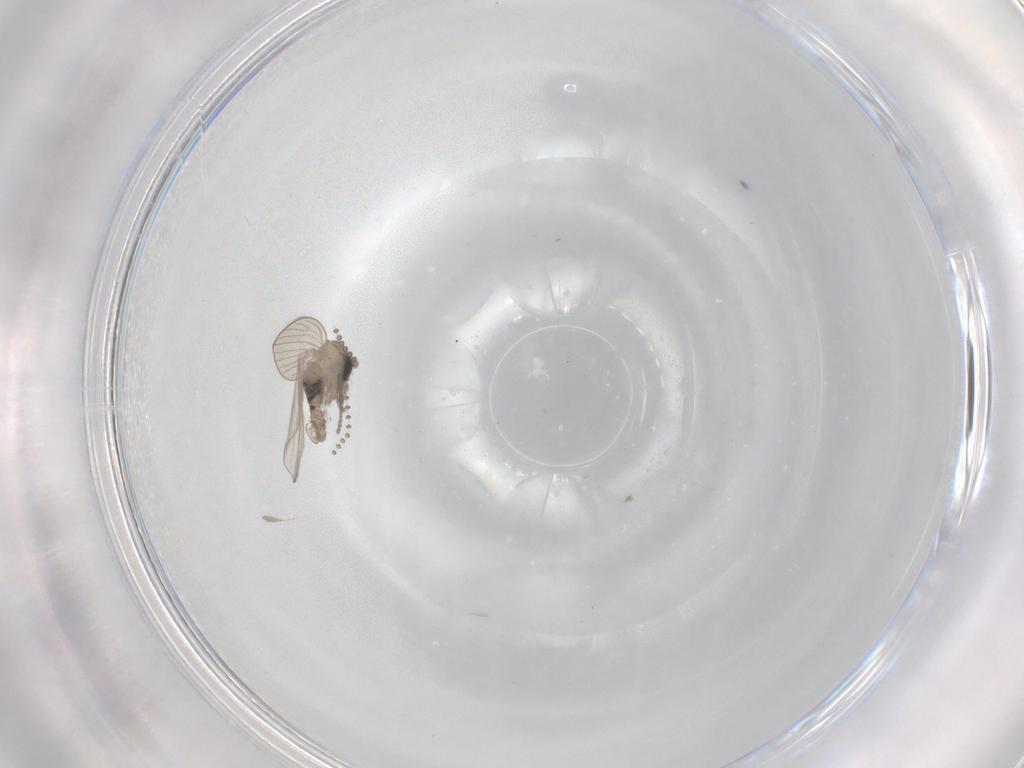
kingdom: Animalia
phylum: Arthropoda
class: Insecta
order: Diptera
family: Psychodidae
